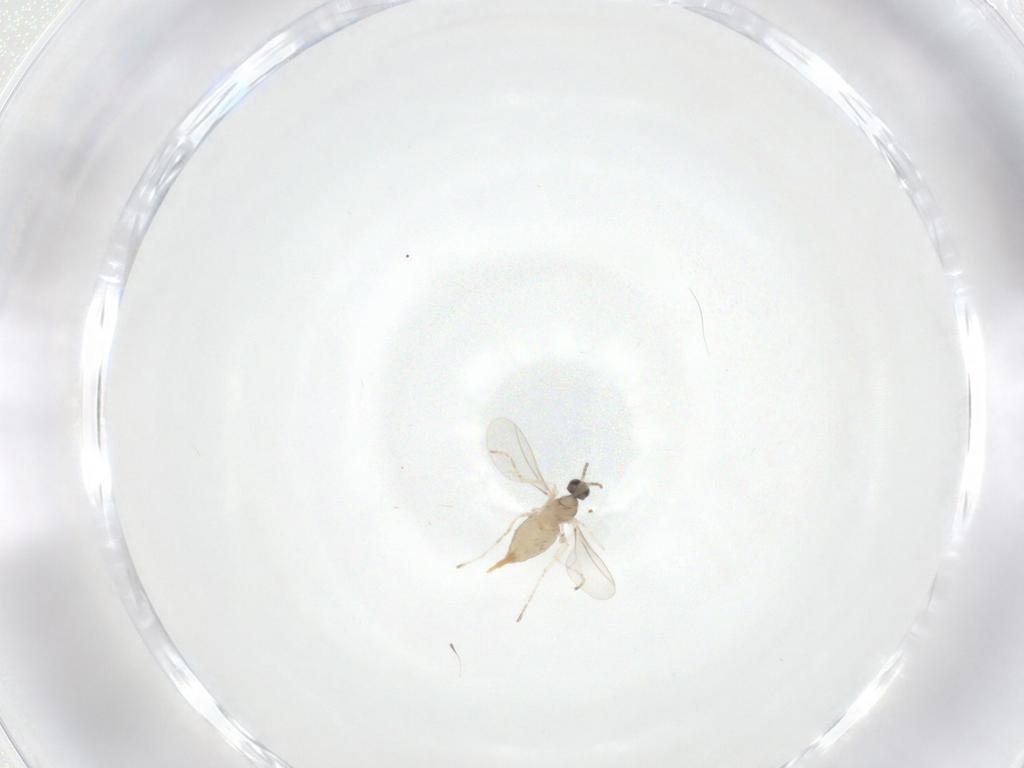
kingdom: Animalia
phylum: Arthropoda
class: Insecta
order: Diptera
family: Cecidomyiidae
